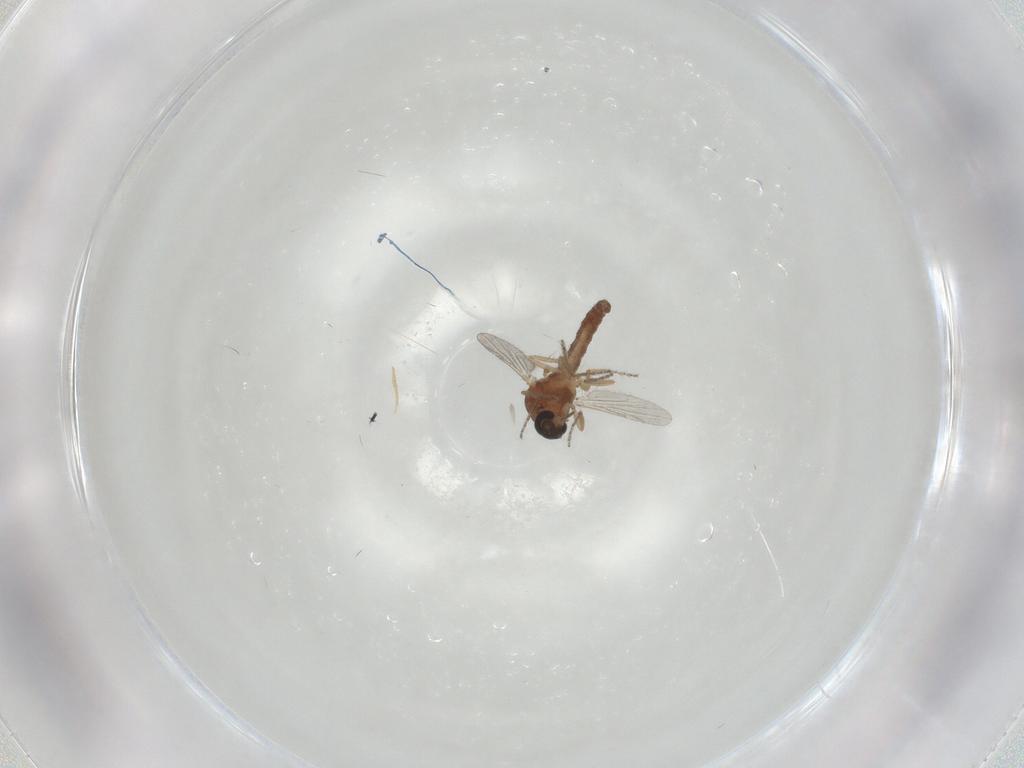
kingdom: Animalia
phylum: Arthropoda
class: Insecta
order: Diptera
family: Ceratopogonidae
